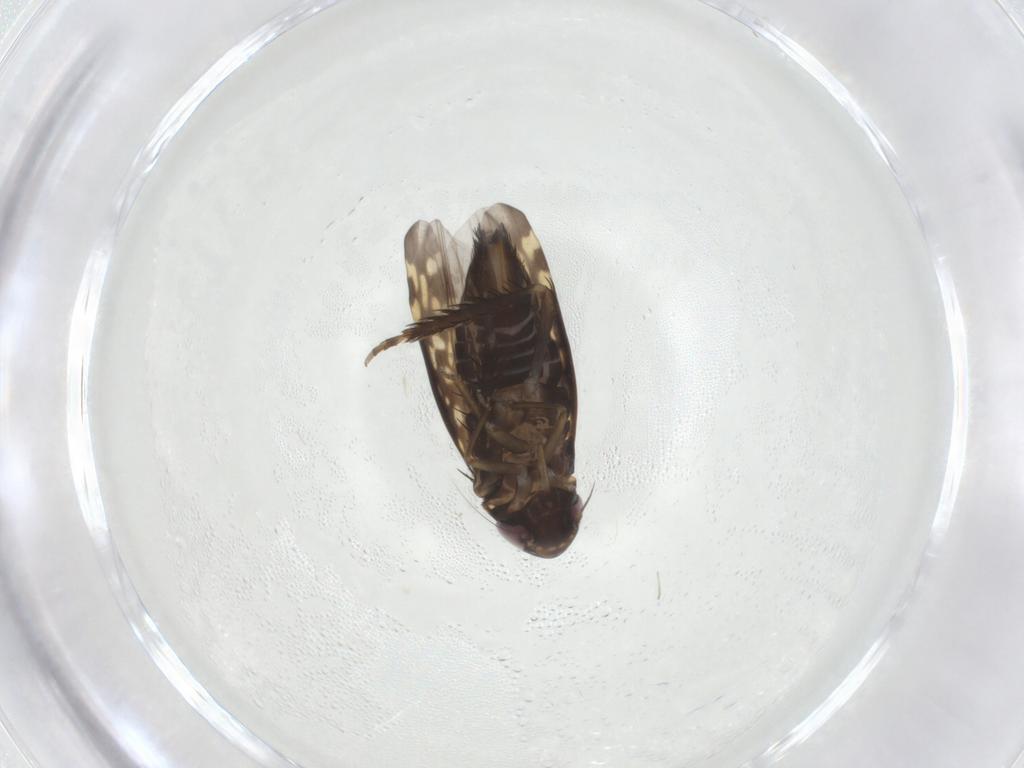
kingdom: Animalia
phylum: Arthropoda
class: Insecta
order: Hemiptera
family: Cicadellidae
